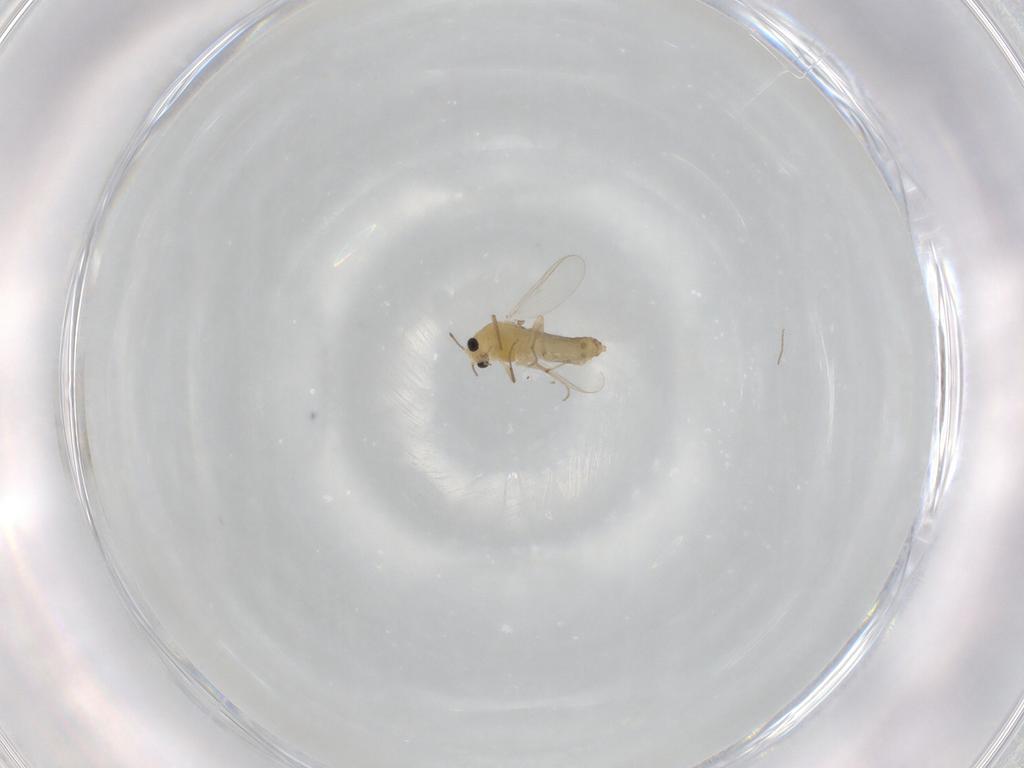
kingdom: Animalia
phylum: Arthropoda
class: Insecta
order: Diptera
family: Chironomidae
